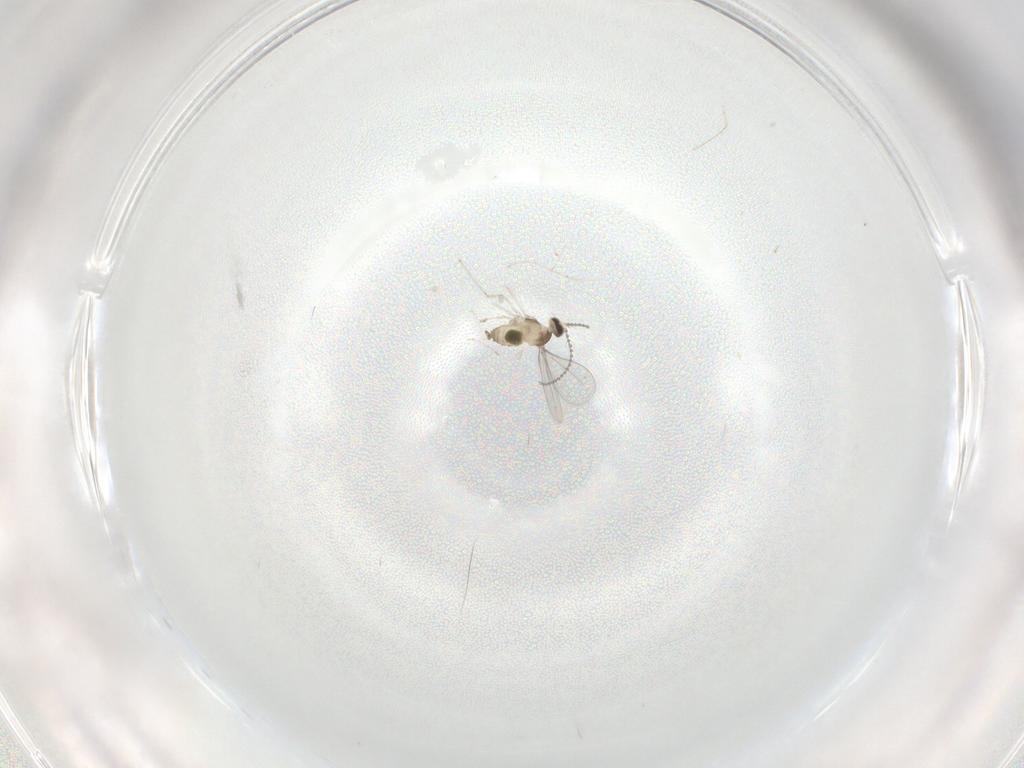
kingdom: Animalia
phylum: Arthropoda
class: Insecta
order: Diptera
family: Cecidomyiidae
